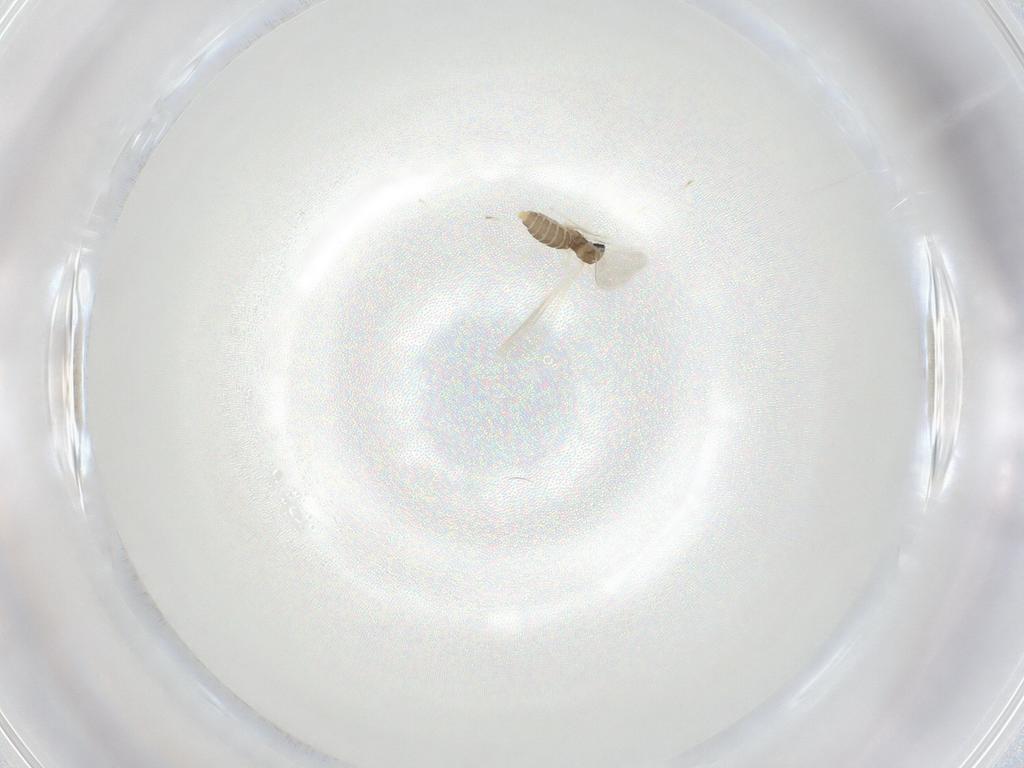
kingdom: Animalia
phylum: Arthropoda
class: Insecta
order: Diptera
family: Cecidomyiidae
